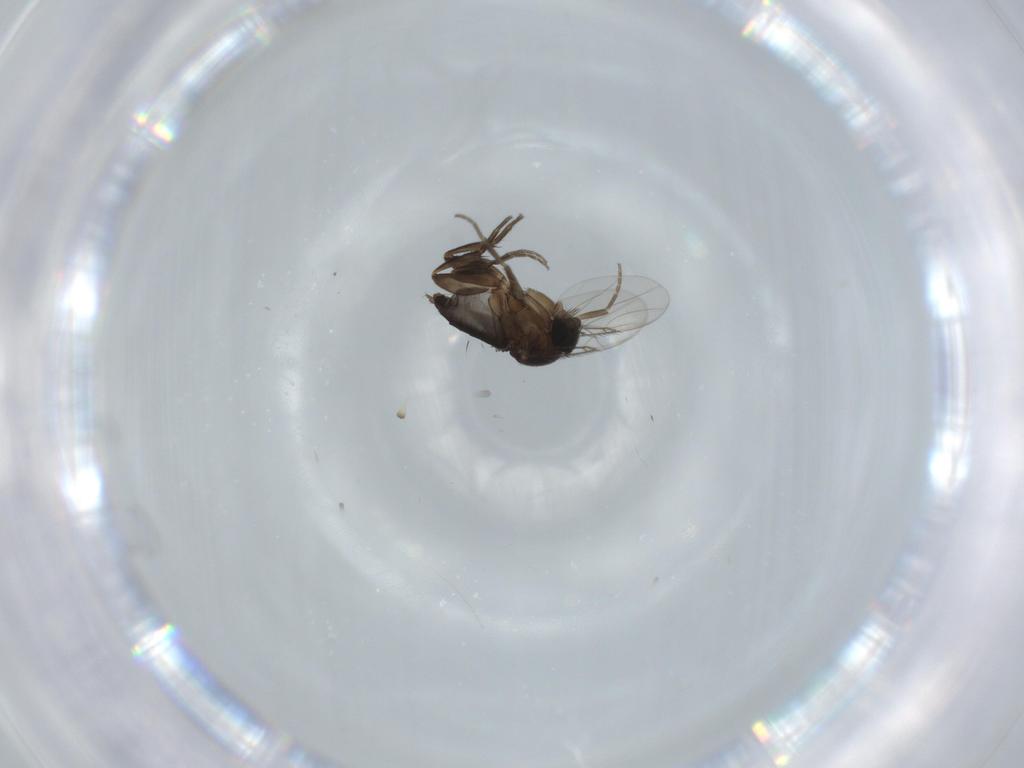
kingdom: Animalia
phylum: Arthropoda
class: Insecta
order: Diptera
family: Phoridae
